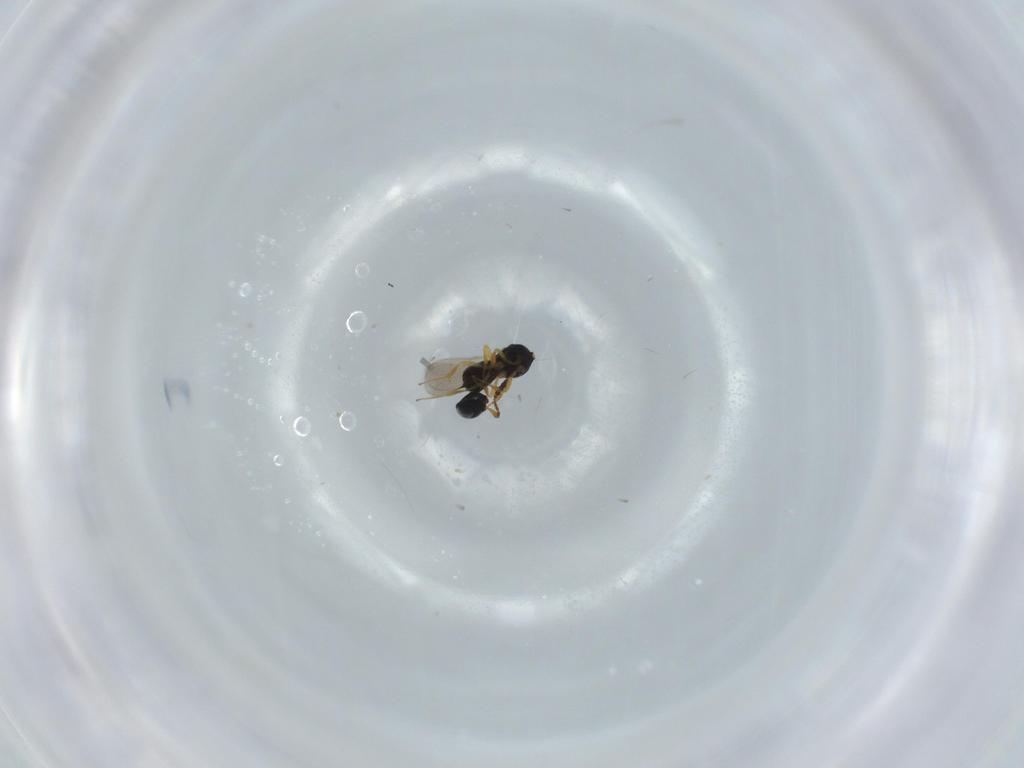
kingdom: Animalia
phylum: Arthropoda
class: Insecta
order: Hymenoptera
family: Scelionidae
